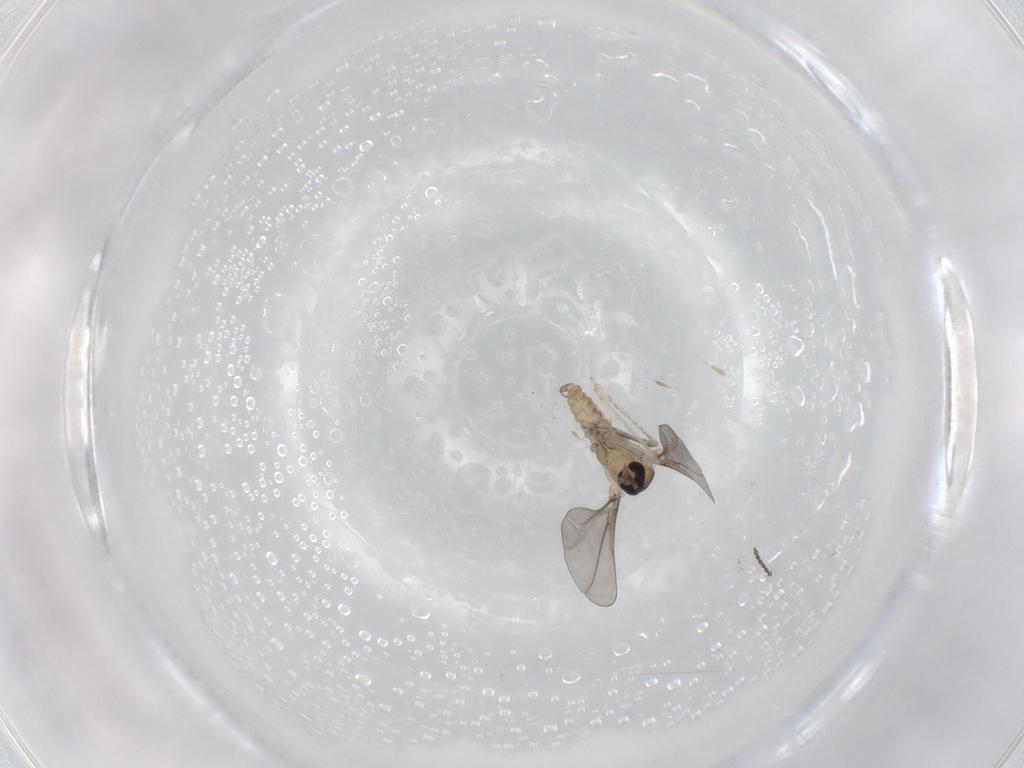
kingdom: Animalia
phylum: Arthropoda
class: Insecta
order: Diptera
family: Cecidomyiidae
